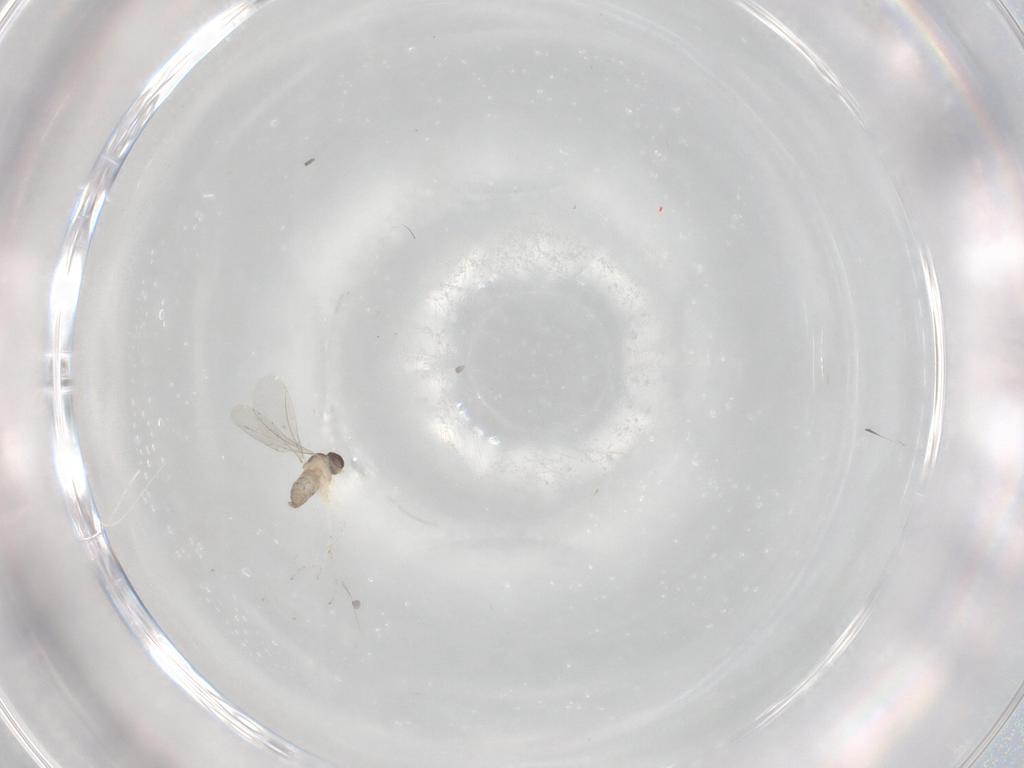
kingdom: Animalia
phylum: Arthropoda
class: Insecta
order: Diptera
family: Cecidomyiidae
